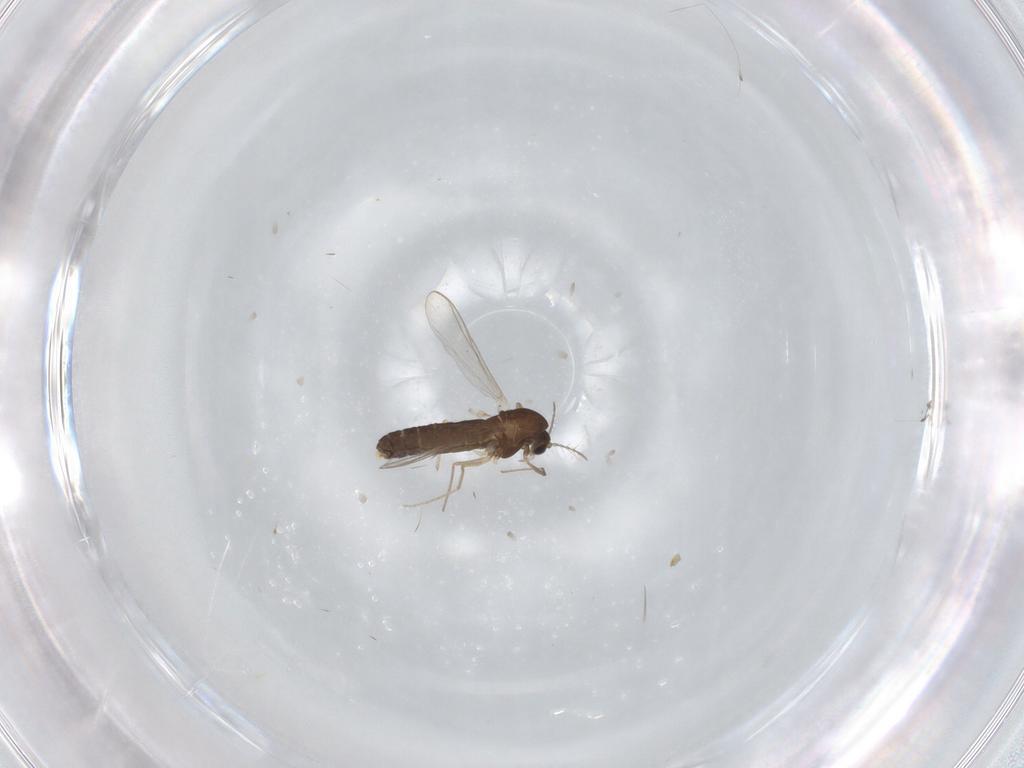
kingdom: Animalia
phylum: Arthropoda
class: Insecta
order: Diptera
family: Chironomidae
